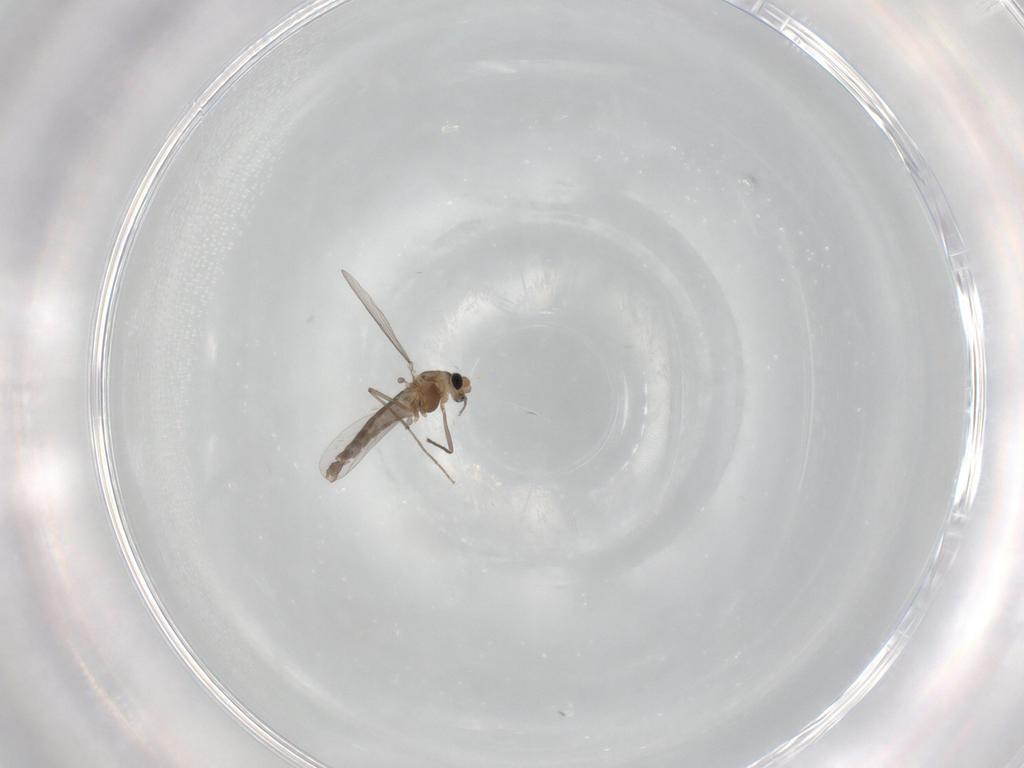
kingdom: Animalia
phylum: Arthropoda
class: Insecta
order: Diptera
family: Chironomidae
